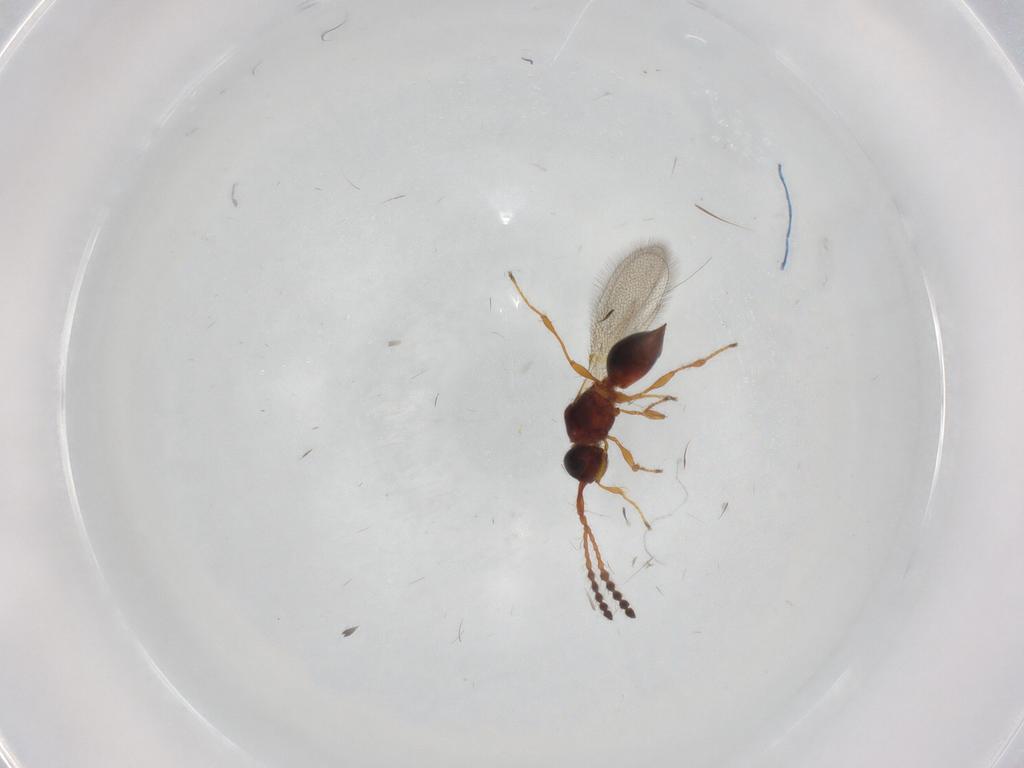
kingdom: Animalia
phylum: Arthropoda
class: Insecta
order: Hymenoptera
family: Diapriidae
